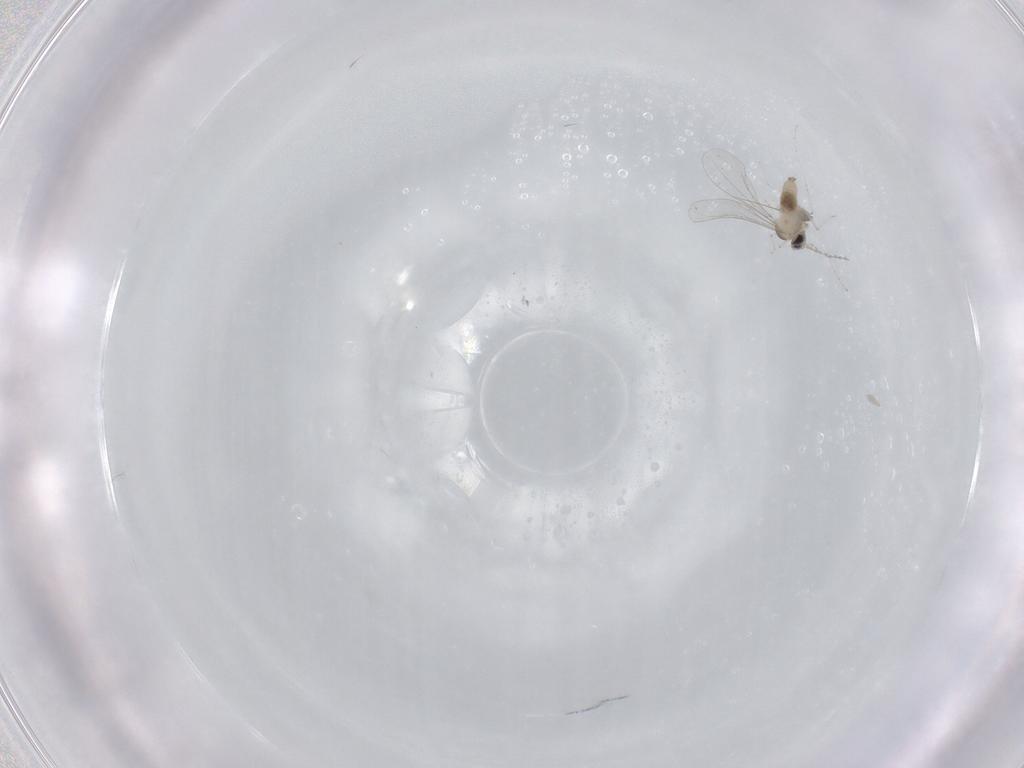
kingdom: Animalia
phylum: Arthropoda
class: Insecta
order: Diptera
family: Cecidomyiidae
